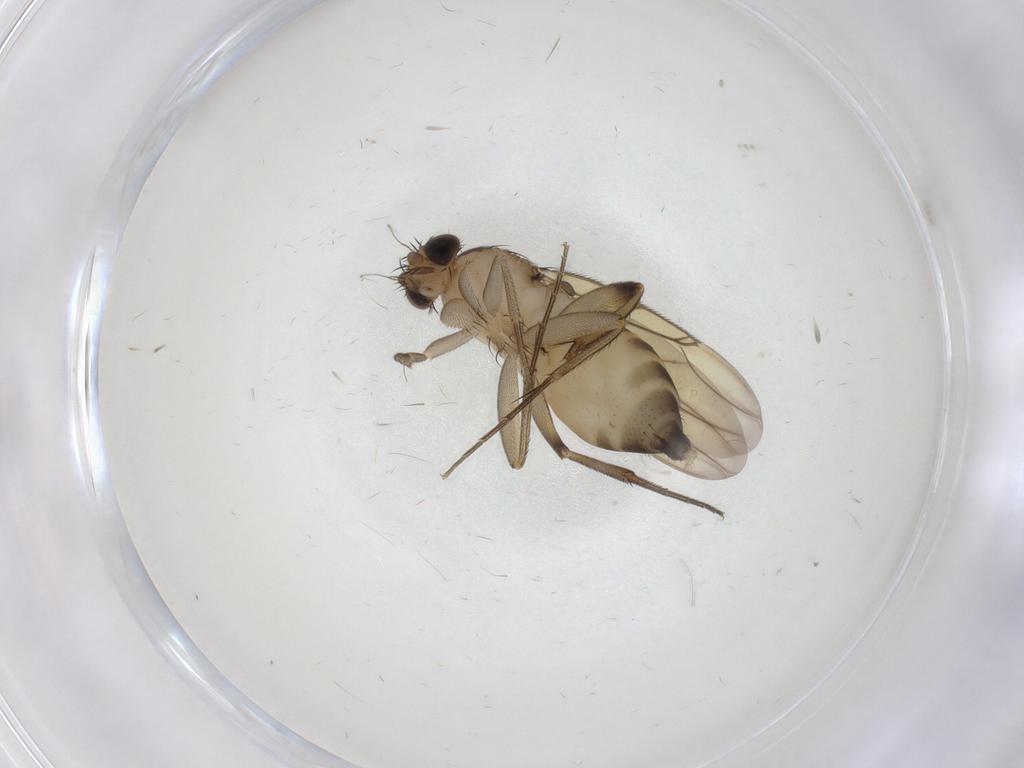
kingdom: Animalia
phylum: Arthropoda
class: Insecta
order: Diptera
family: Phoridae
